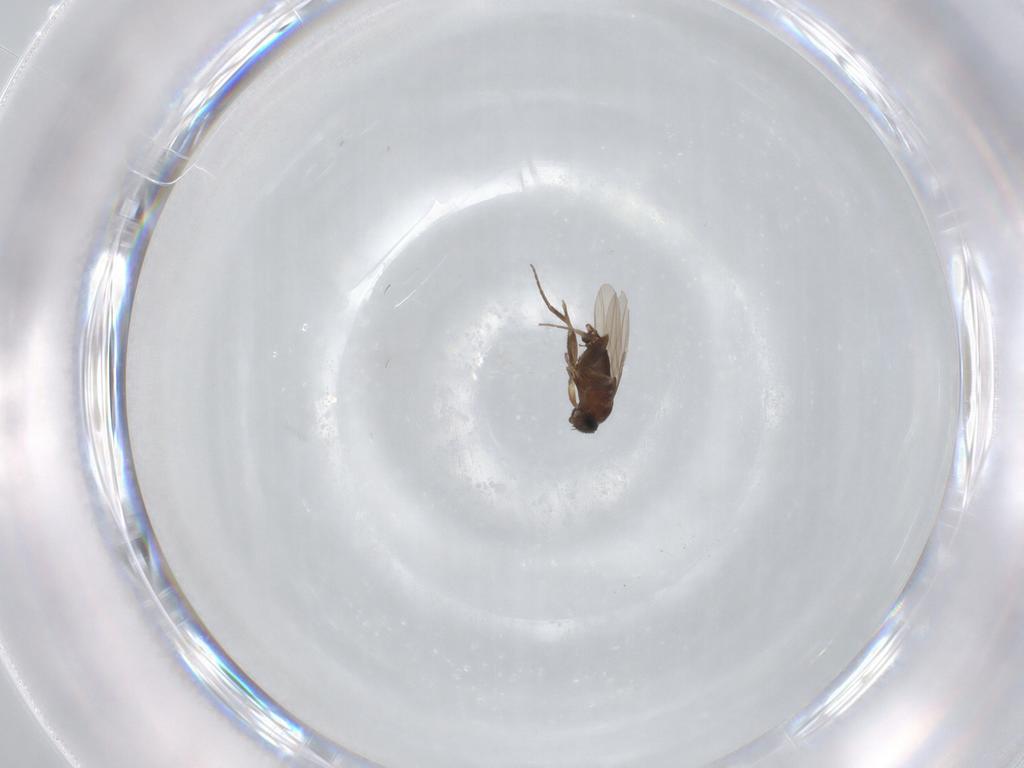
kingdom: Animalia
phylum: Arthropoda
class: Insecta
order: Diptera
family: Phoridae
